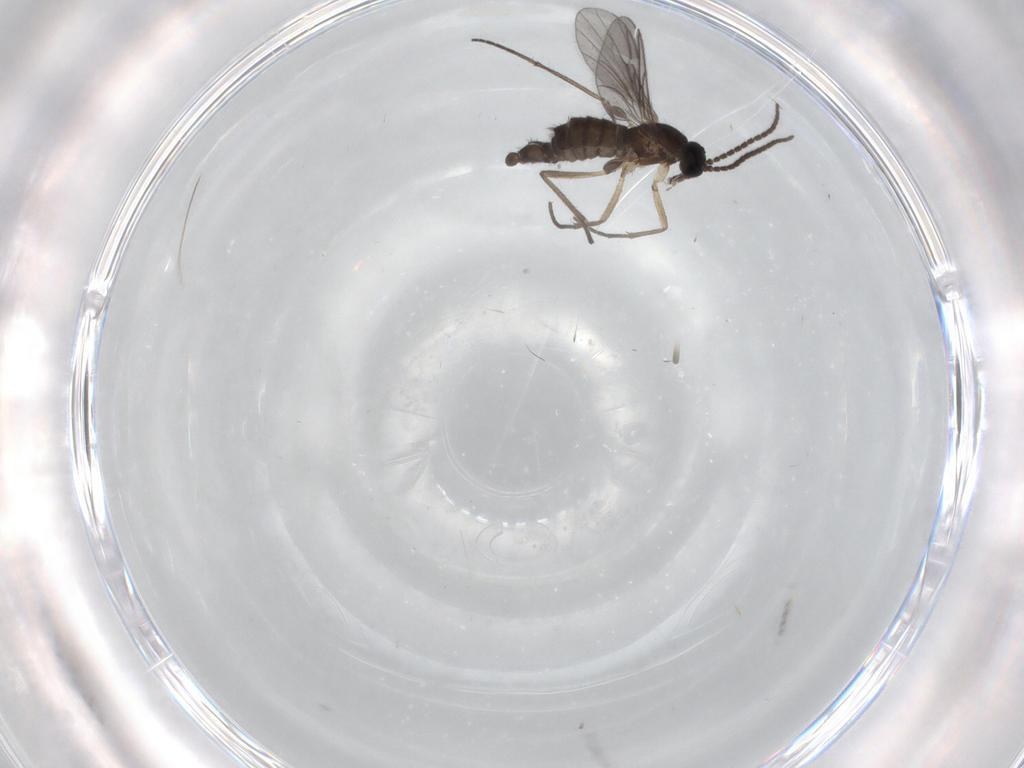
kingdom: Animalia
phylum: Arthropoda
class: Insecta
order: Diptera
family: Sciaridae
